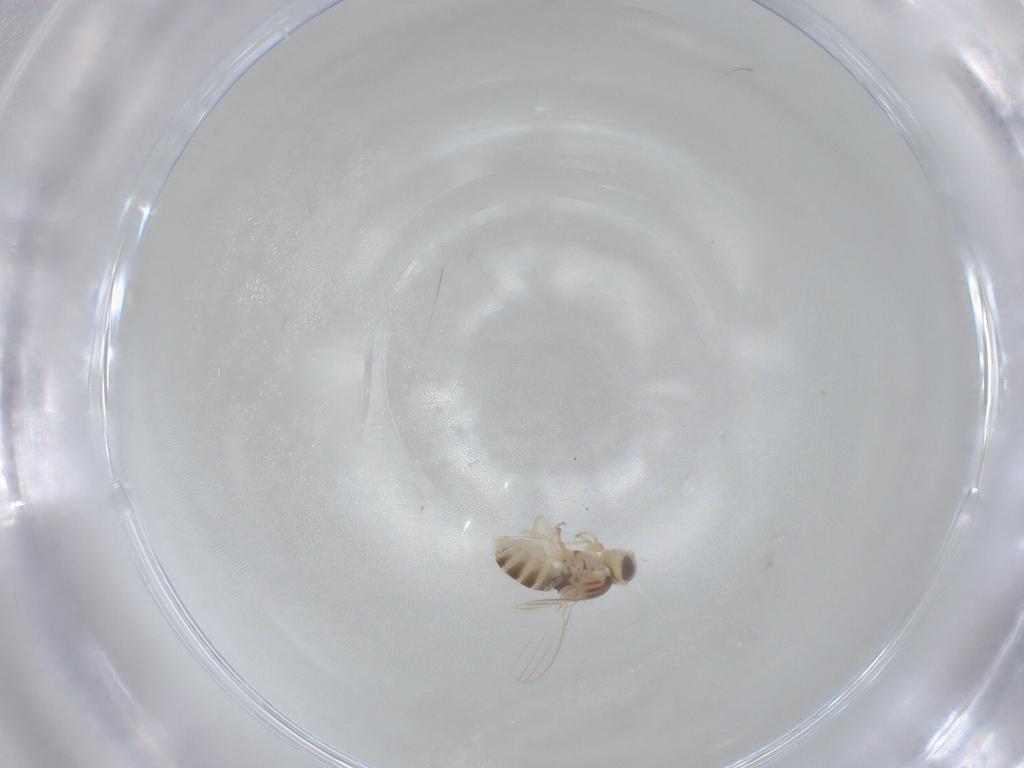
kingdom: Animalia
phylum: Arthropoda
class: Insecta
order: Diptera
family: Chyromyidae
